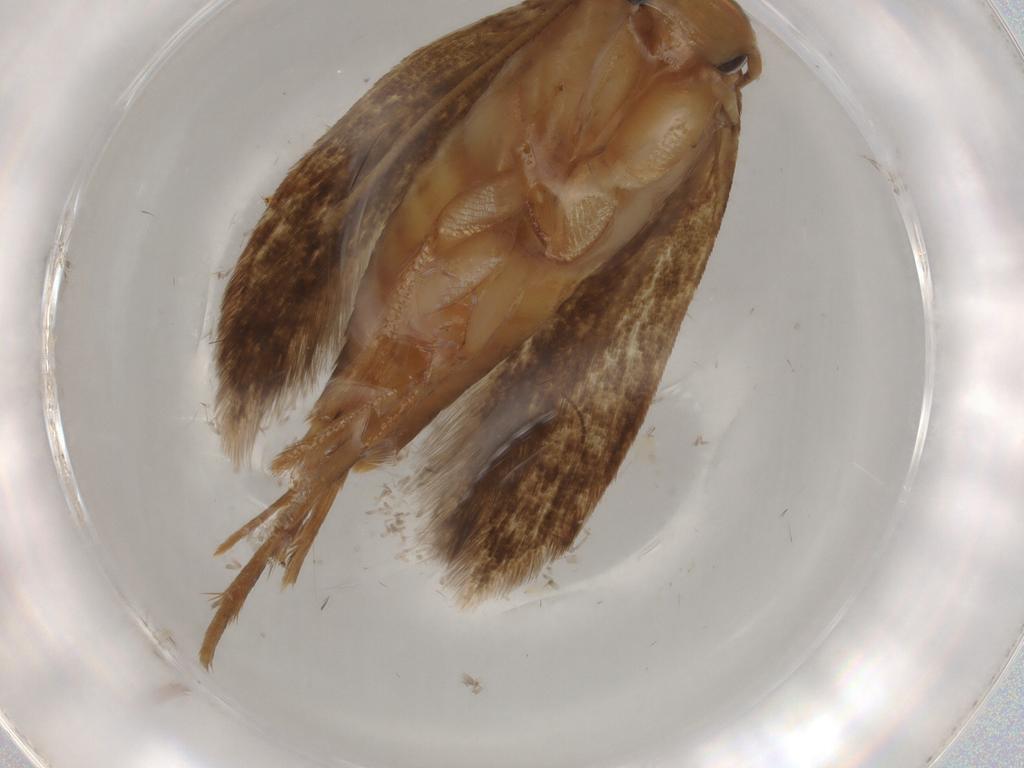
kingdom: Animalia
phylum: Arthropoda
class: Insecta
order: Lepidoptera
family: Tineidae
